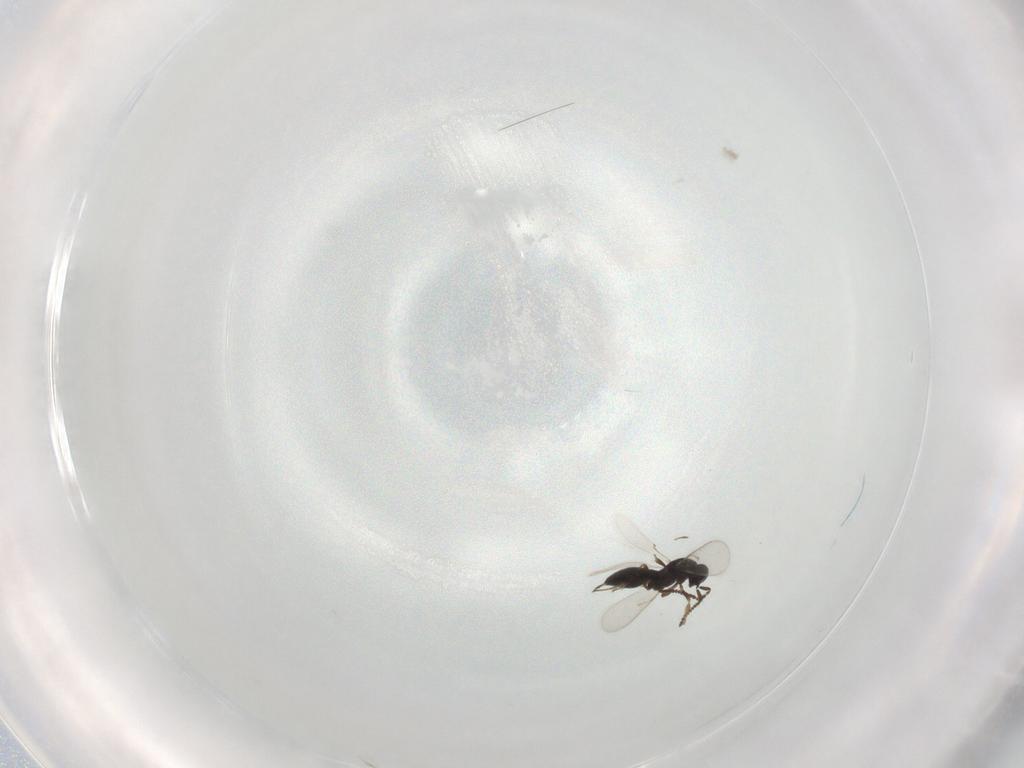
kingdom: Animalia
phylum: Arthropoda
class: Insecta
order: Hymenoptera
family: Scelionidae
